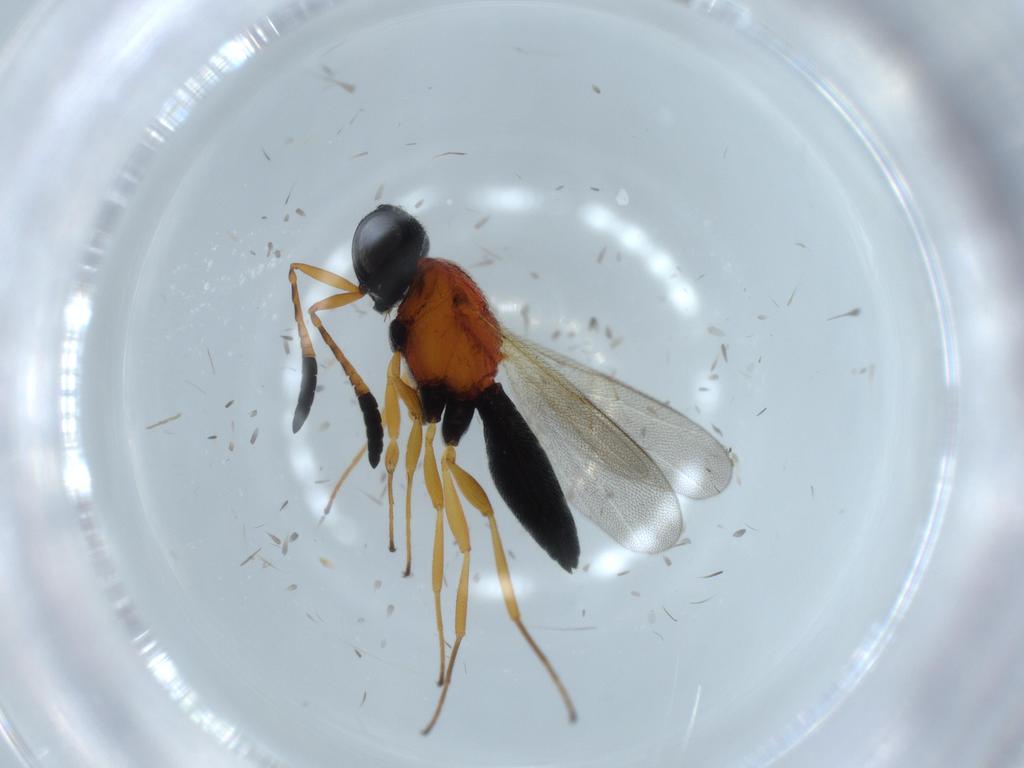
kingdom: Animalia
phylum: Arthropoda
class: Insecta
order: Hymenoptera
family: Scelionidae
